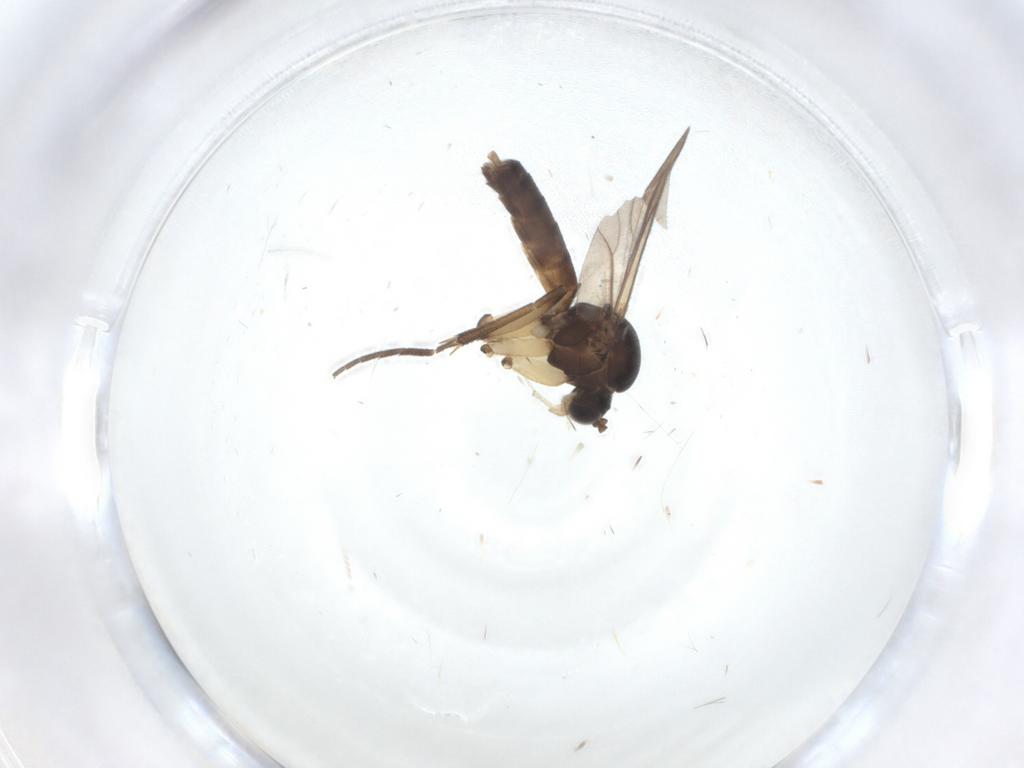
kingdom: Animalia
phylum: Arthropoda
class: Insecta
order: Diptera
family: Mycetophilidae
